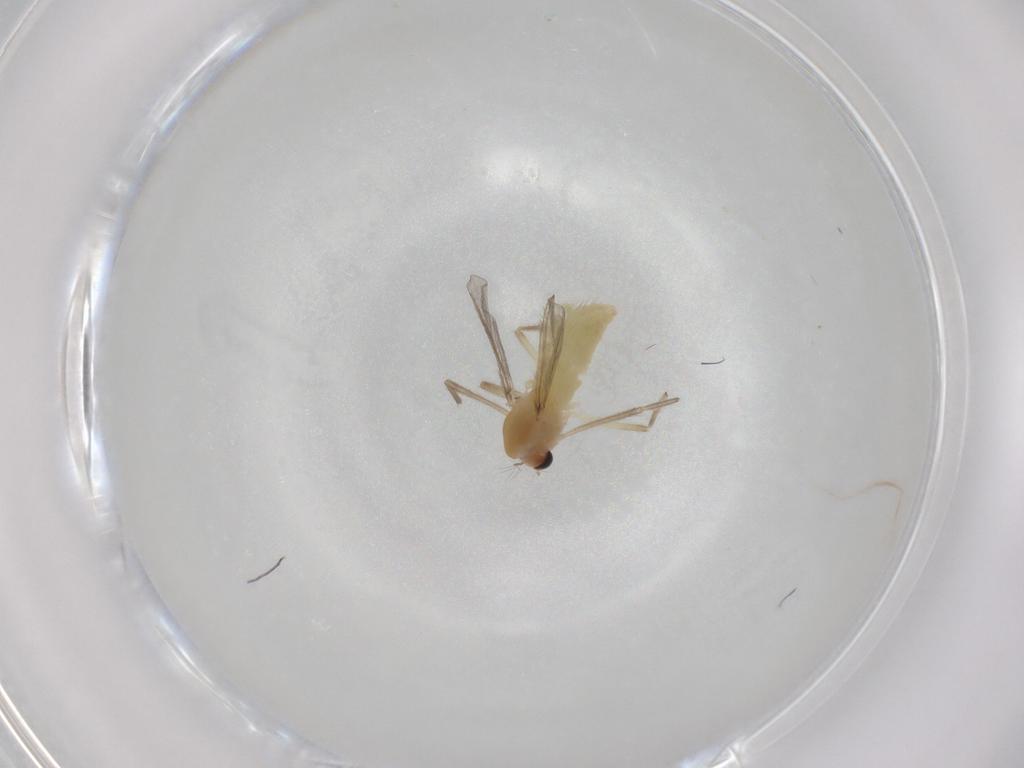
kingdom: Animalia
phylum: Arthropoda
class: Insecta
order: Diptera
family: Chironomidae
